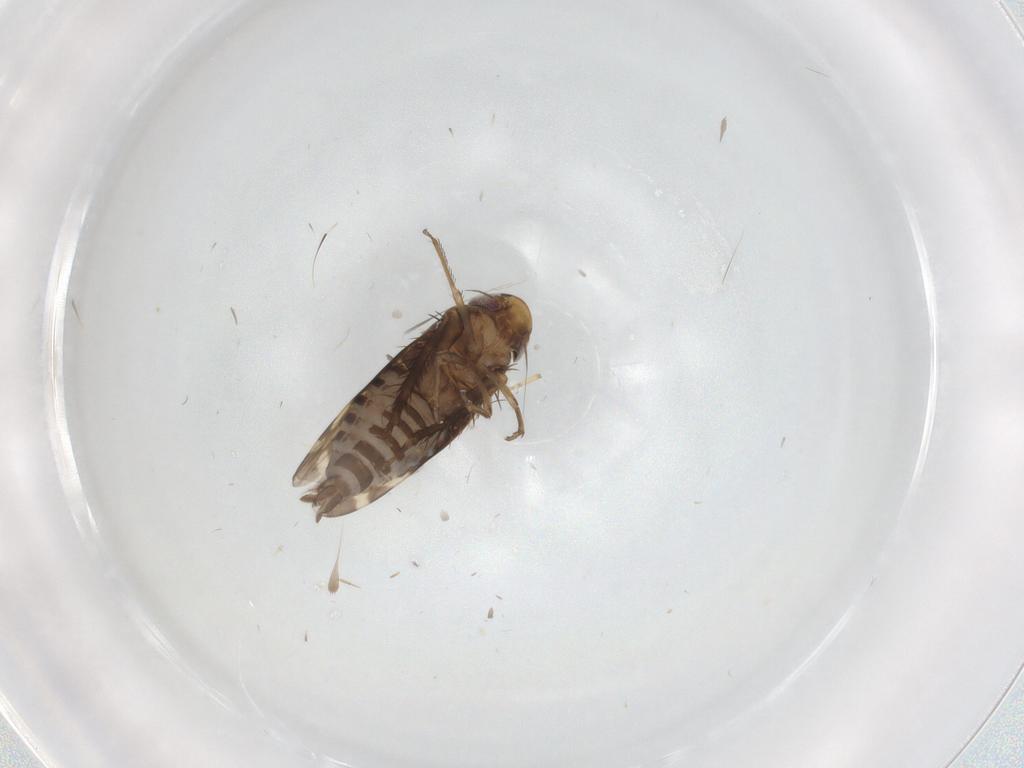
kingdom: Animalia
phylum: Arthropoda
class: Insecta
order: Hemiptera
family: Cicadellidae
